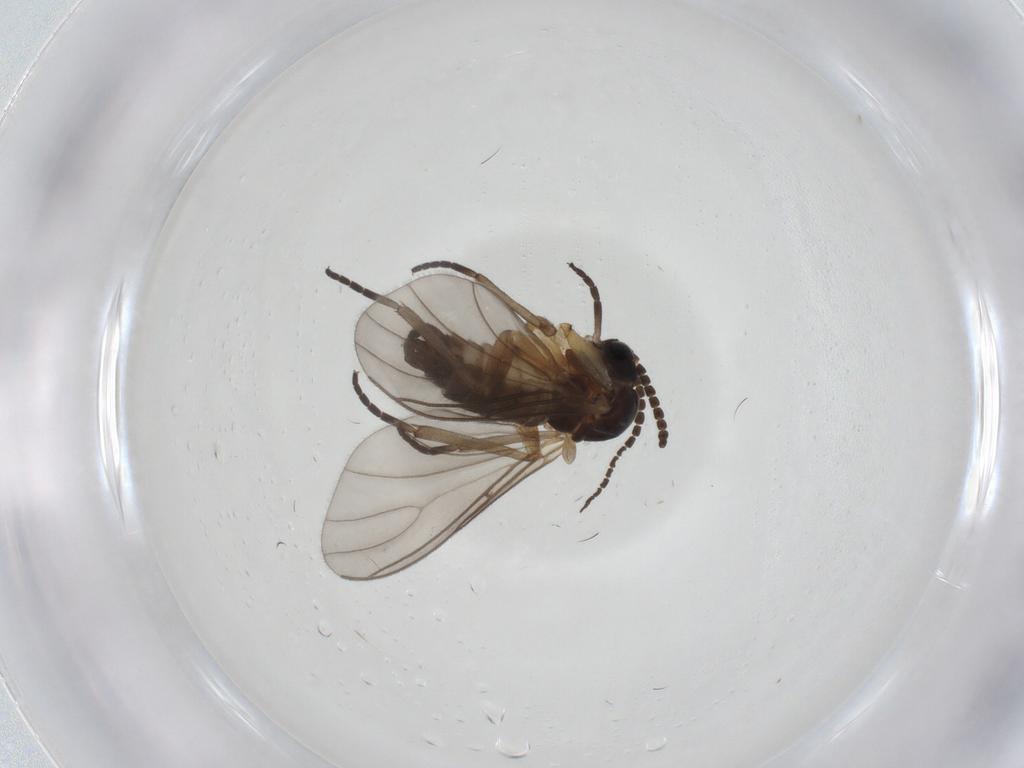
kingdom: Animalia
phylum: Arthropoda
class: Insecta
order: Diptera
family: Sciaridae
